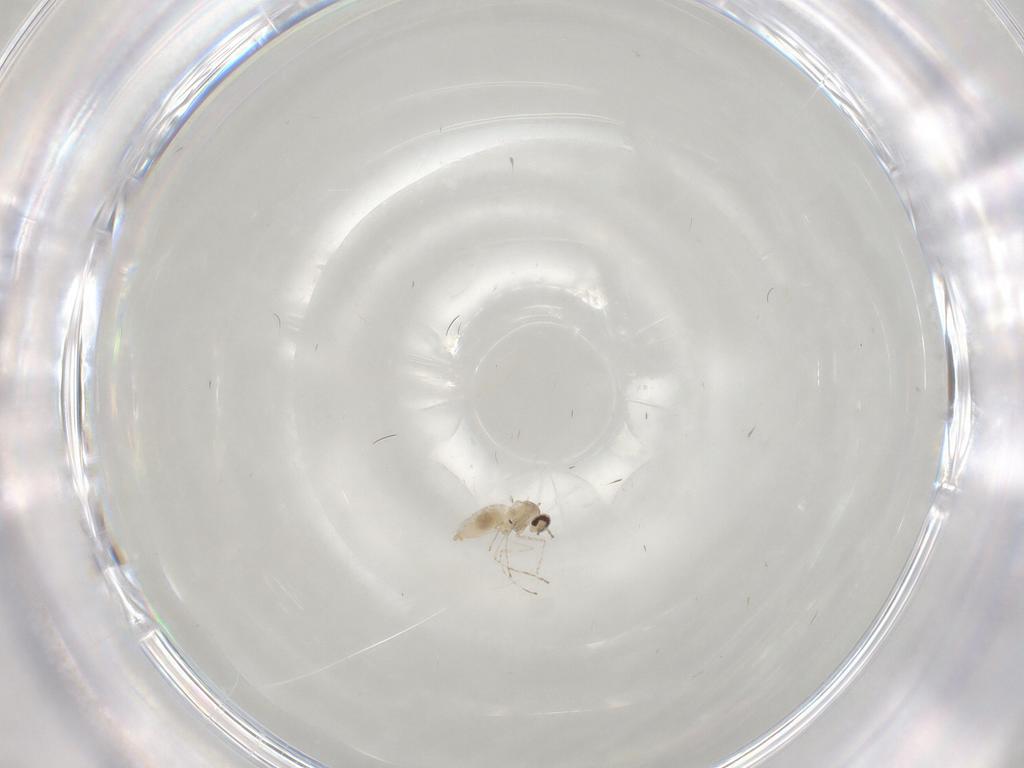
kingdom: Animalia
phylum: Arthropoda
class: Insecta
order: Diptera
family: Cecidomyiidae
